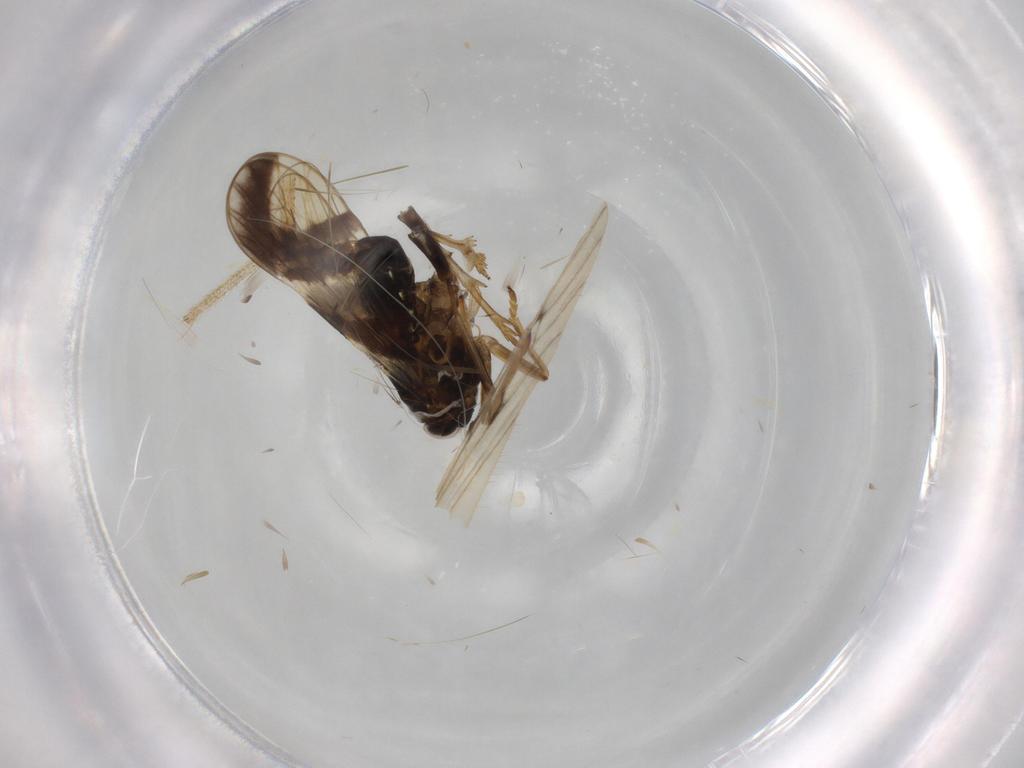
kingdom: Animalia
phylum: Arthropoda
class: Insecta
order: Hemiptera
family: Delphacidae
